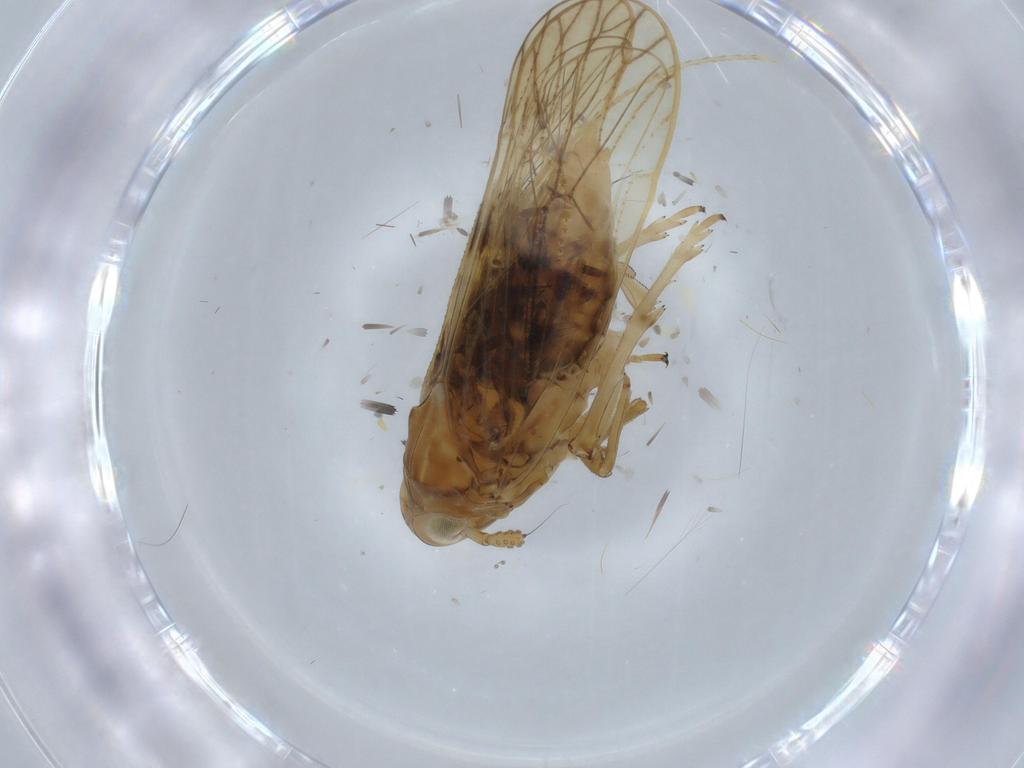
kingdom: Animalia
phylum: Arthropoda
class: Insecta
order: Hemiptera
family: Delphacidae
